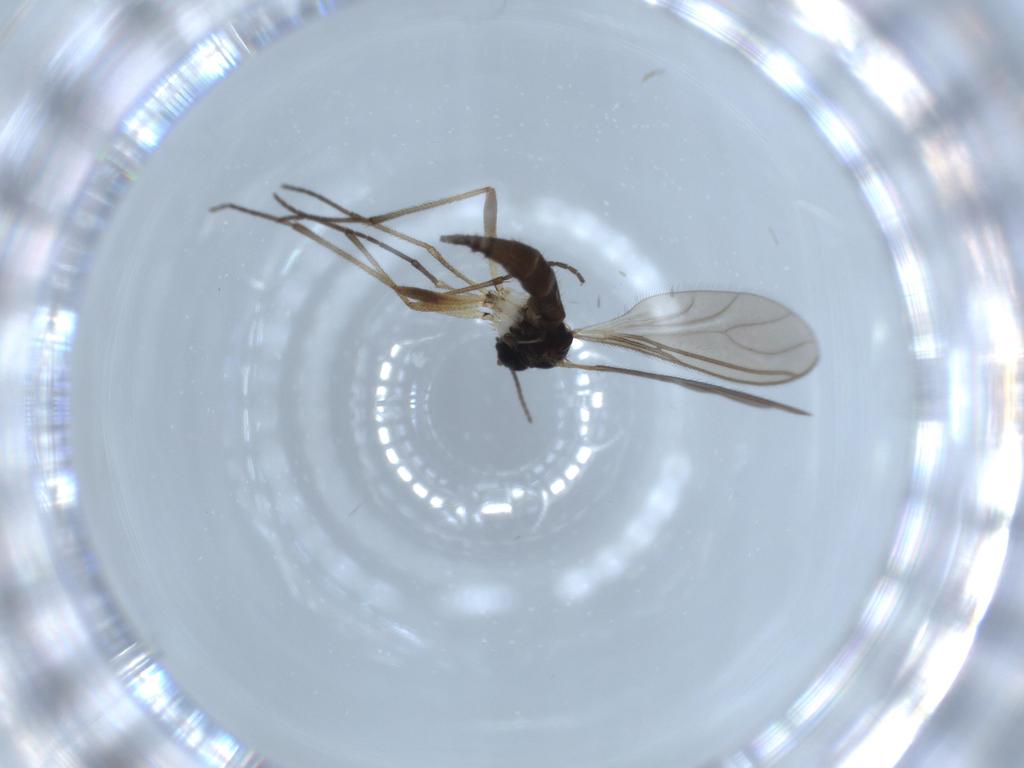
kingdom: Animalia
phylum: Arthropoda
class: Insecta
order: Diptera
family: Sciaridae
